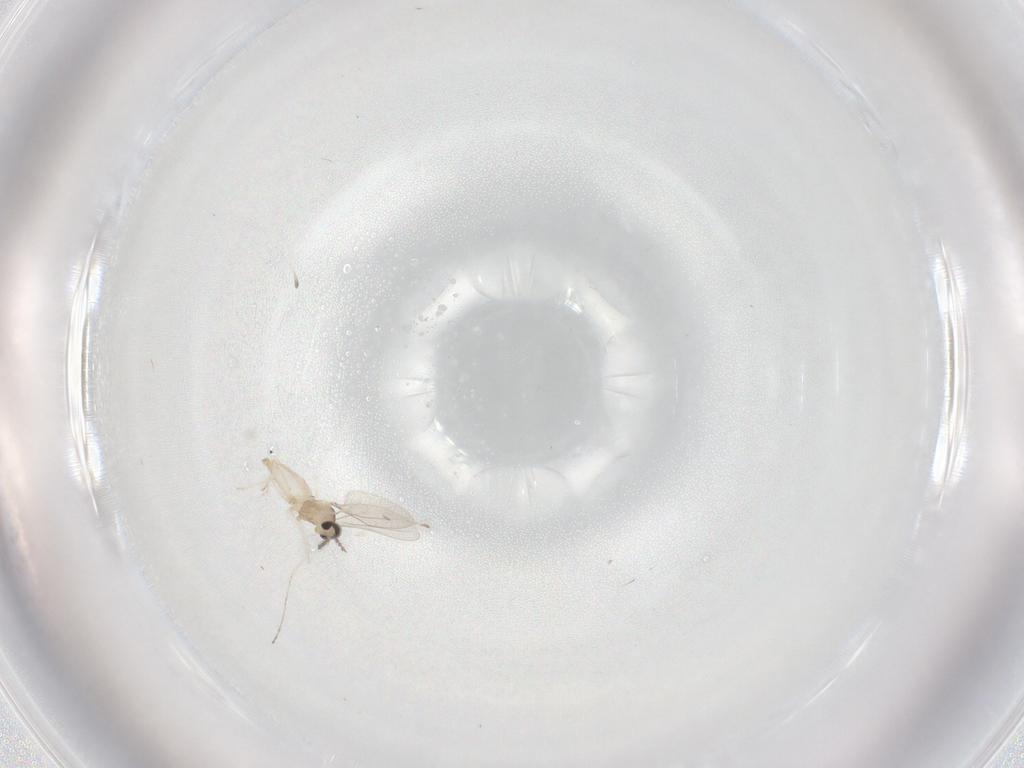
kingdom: Animalia
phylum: Arthropoda
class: Insecta
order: Diptera
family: Cecidomyiidae
